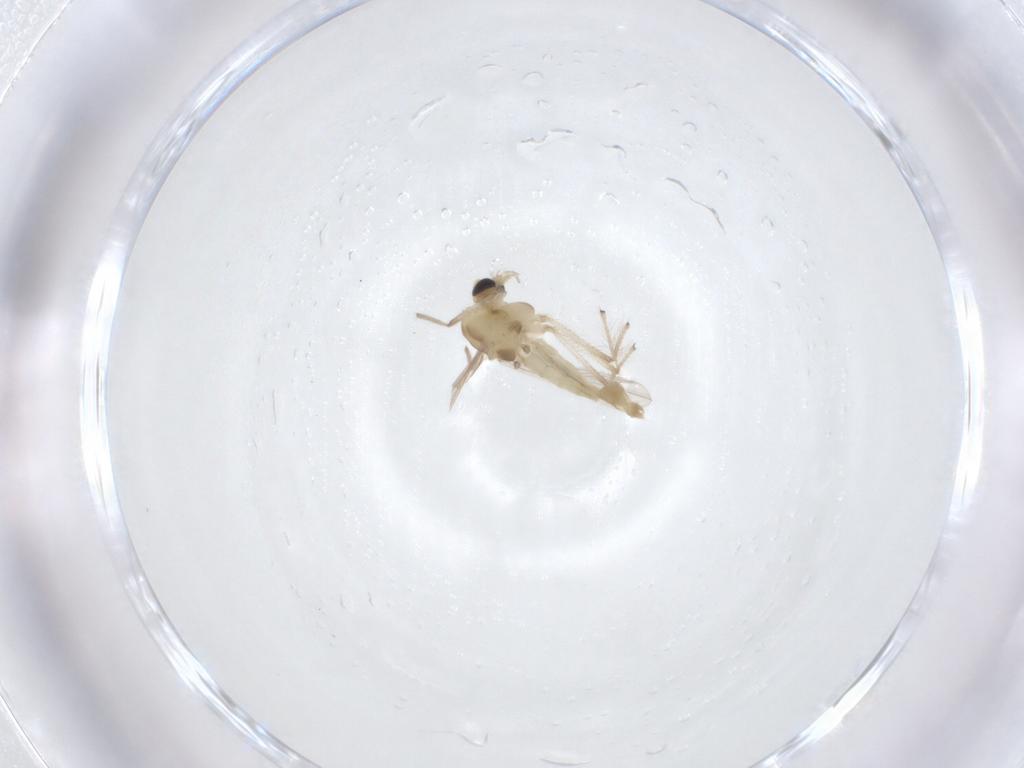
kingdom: Animalia
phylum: Arthropoda
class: Insecta
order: Diptera
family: Chironomidae
